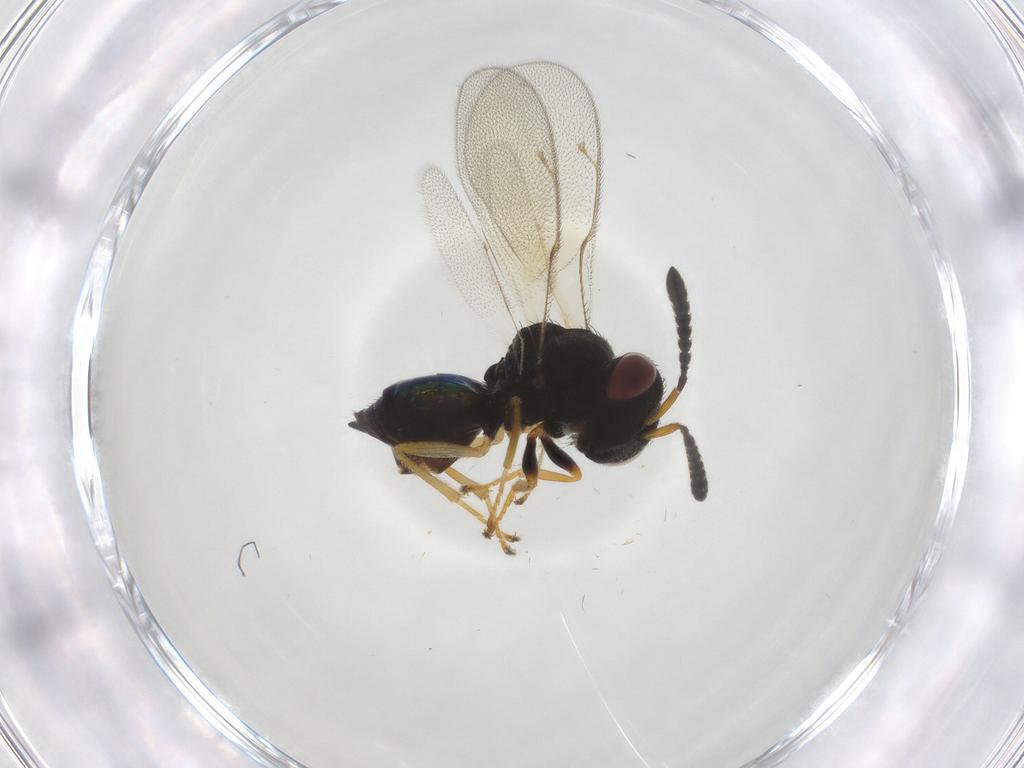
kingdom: Animalia
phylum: Arthropoda
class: Insecta
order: Hymenoptera
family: Pteromalidae
